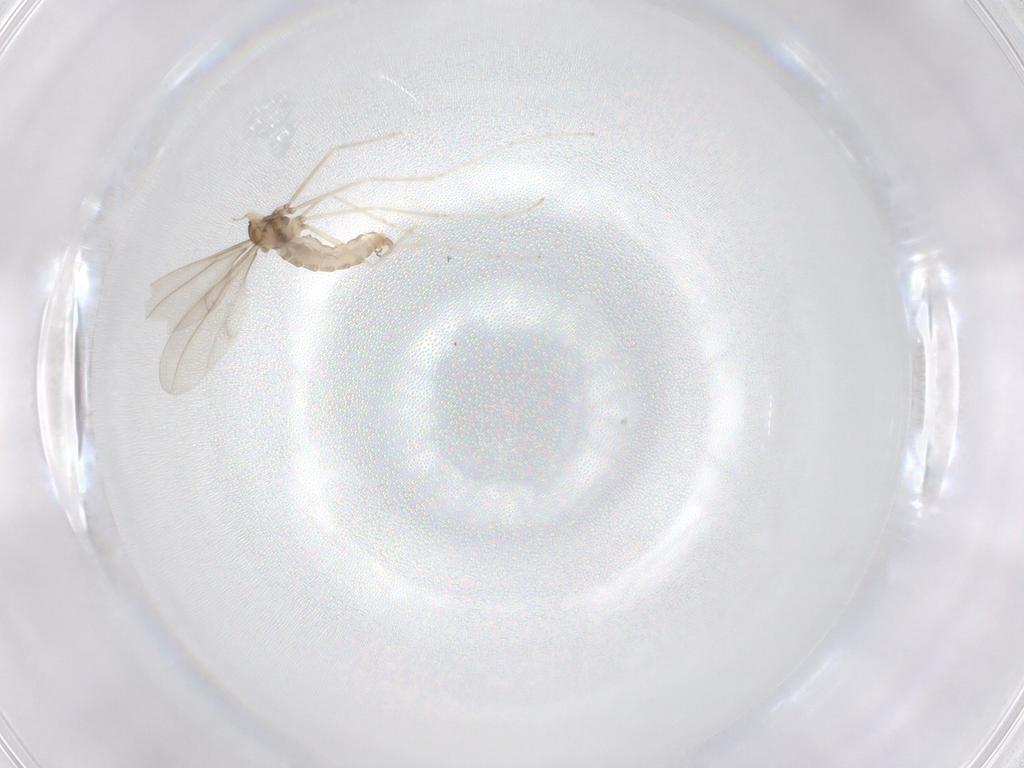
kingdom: Animalia
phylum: Arthropoda
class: Insecta
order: Diptera
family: Cecidomyiidae
